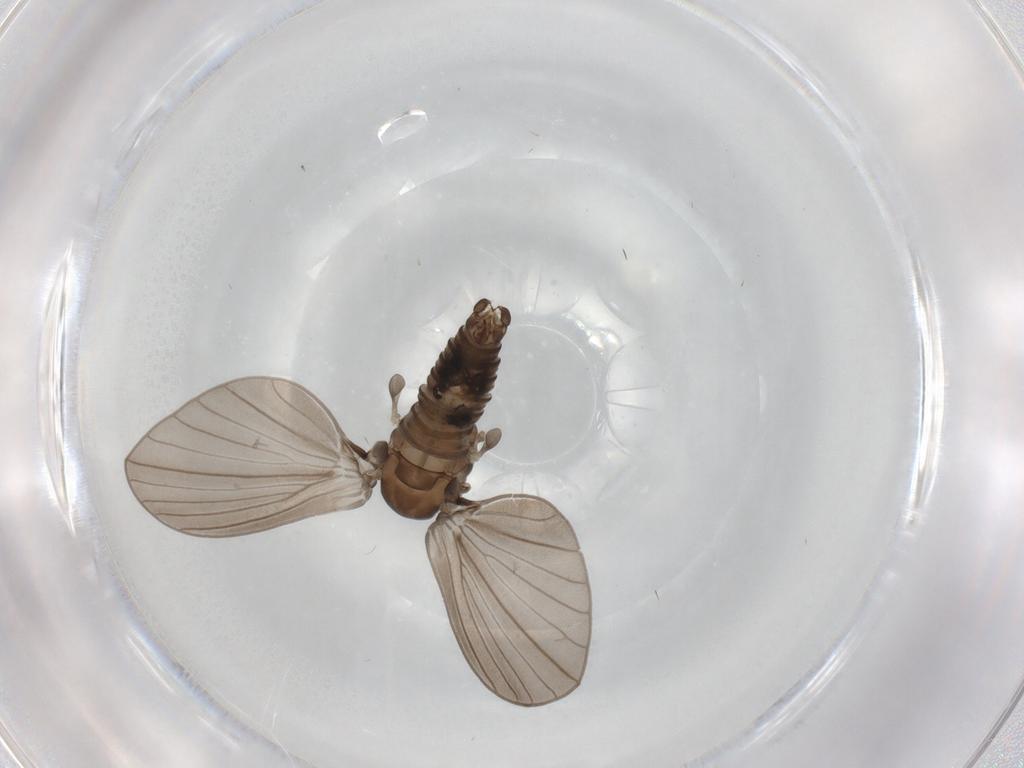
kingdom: Animalia
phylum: Arthropoda
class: Insecta
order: Diptera
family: Psychodidae
